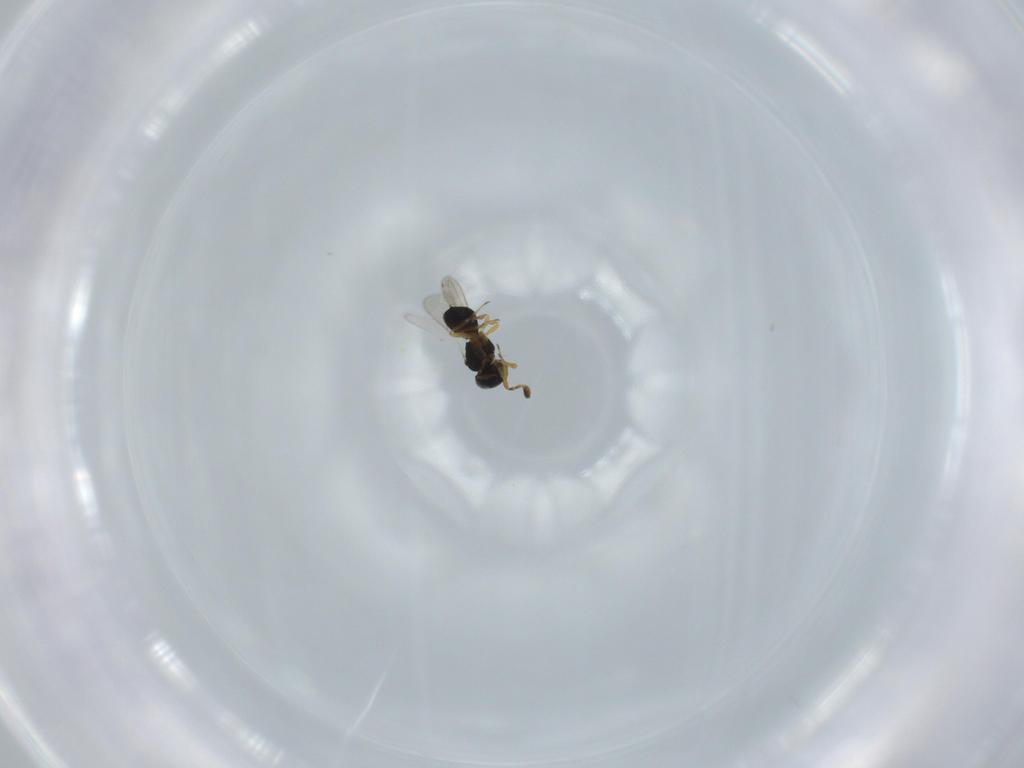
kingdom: Animalia
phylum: Arthropoda
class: Insecta
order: Hymenoptera
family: Scelionidae
